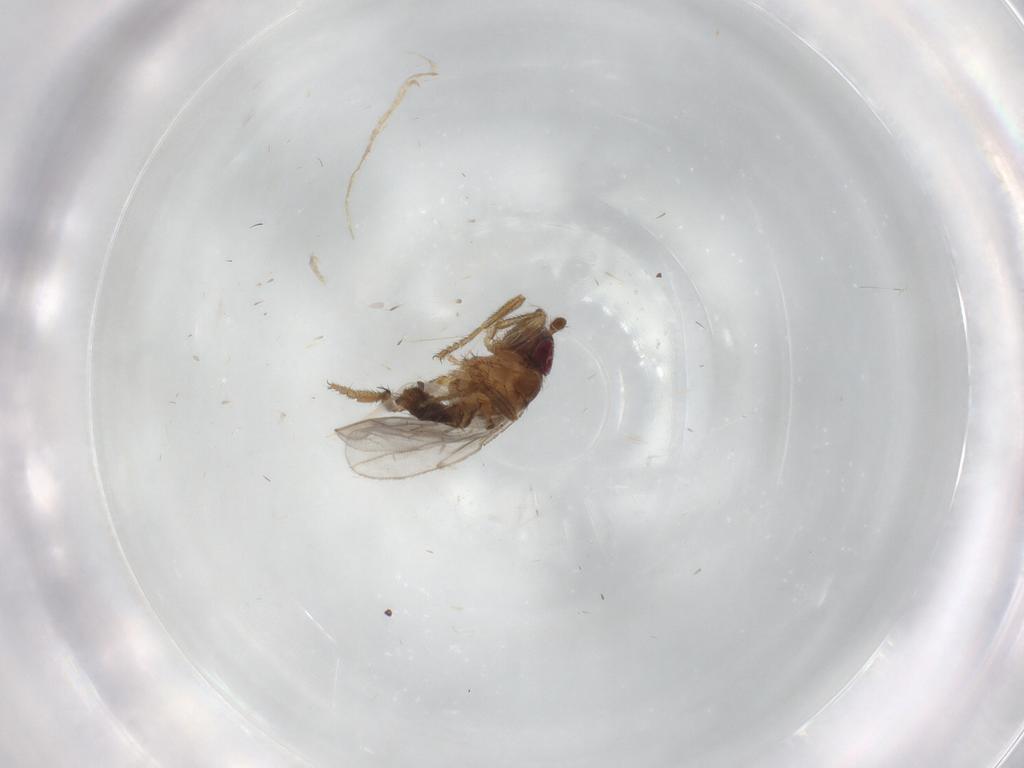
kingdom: Animalia
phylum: Arthropoda
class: Insecta
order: Diptera
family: Sphaeroceridae
